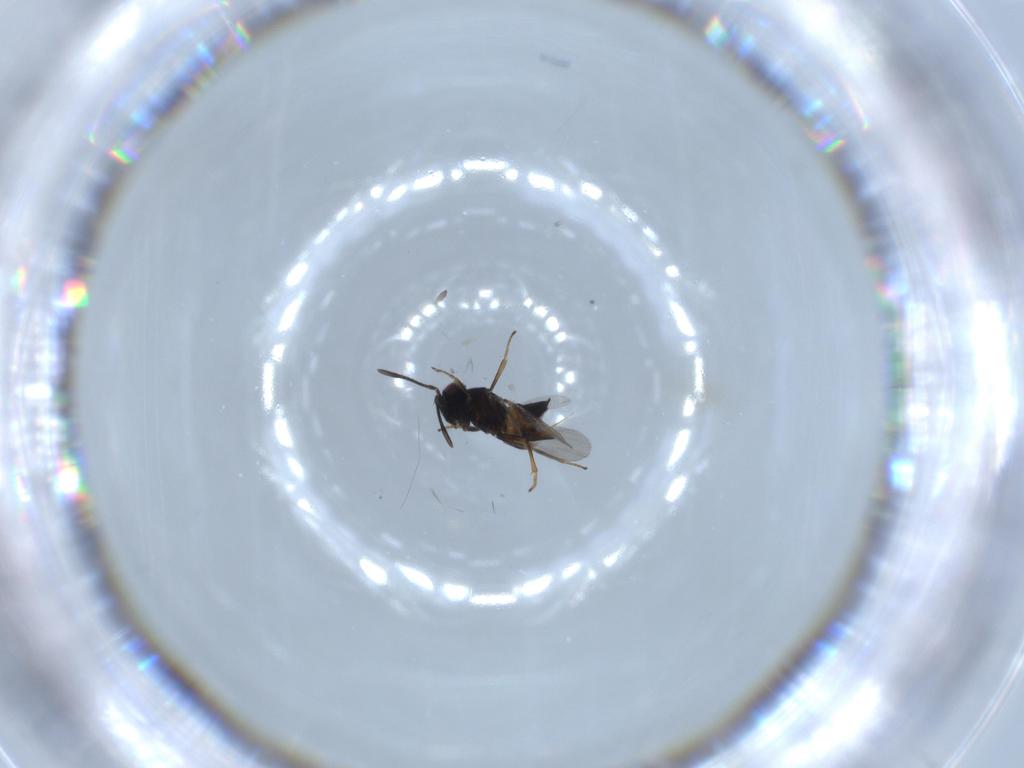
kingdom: Animalia
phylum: Arthropoda
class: Insecta
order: Hymenoptera
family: Encyrtidae
